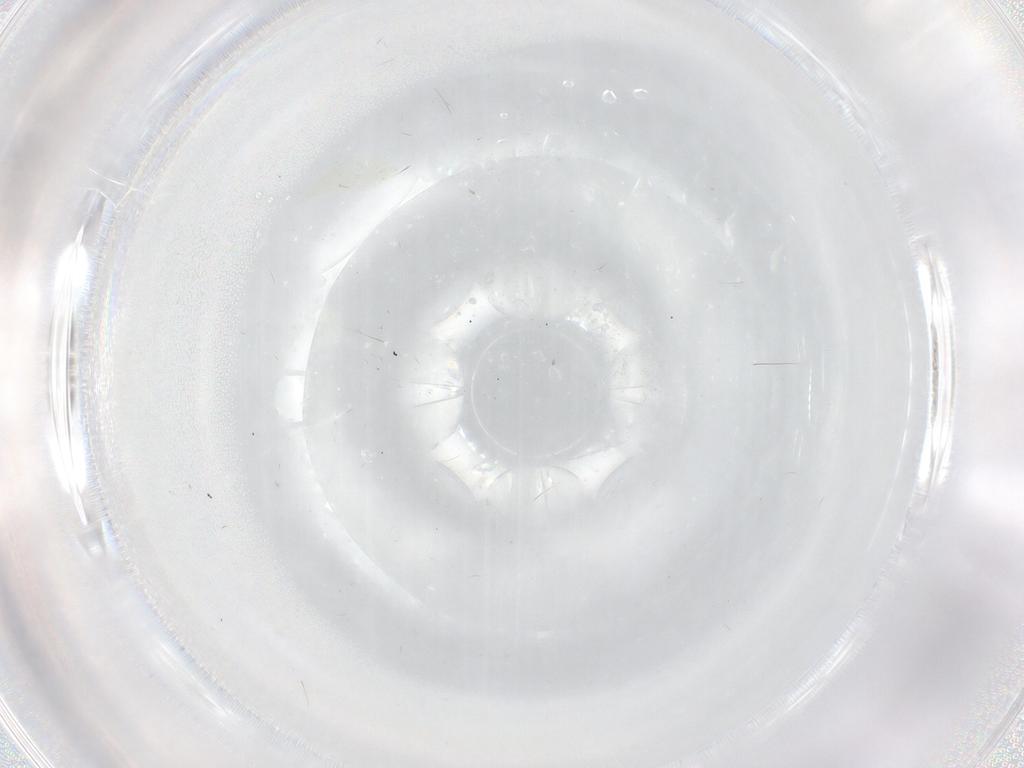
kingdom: Animalia
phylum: Arthropoda
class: Insecta
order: Diptera
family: Cecidomyiidae
